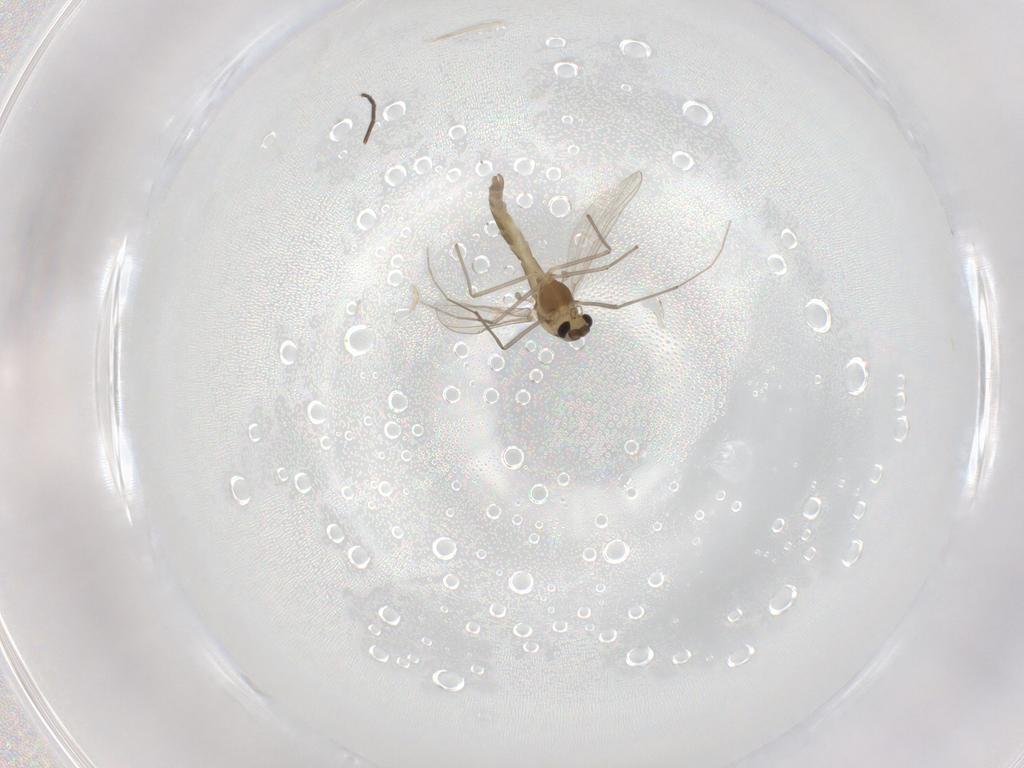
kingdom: Animalia
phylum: Arthropoda
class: Insecta
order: Diptera
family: Chironomidae
